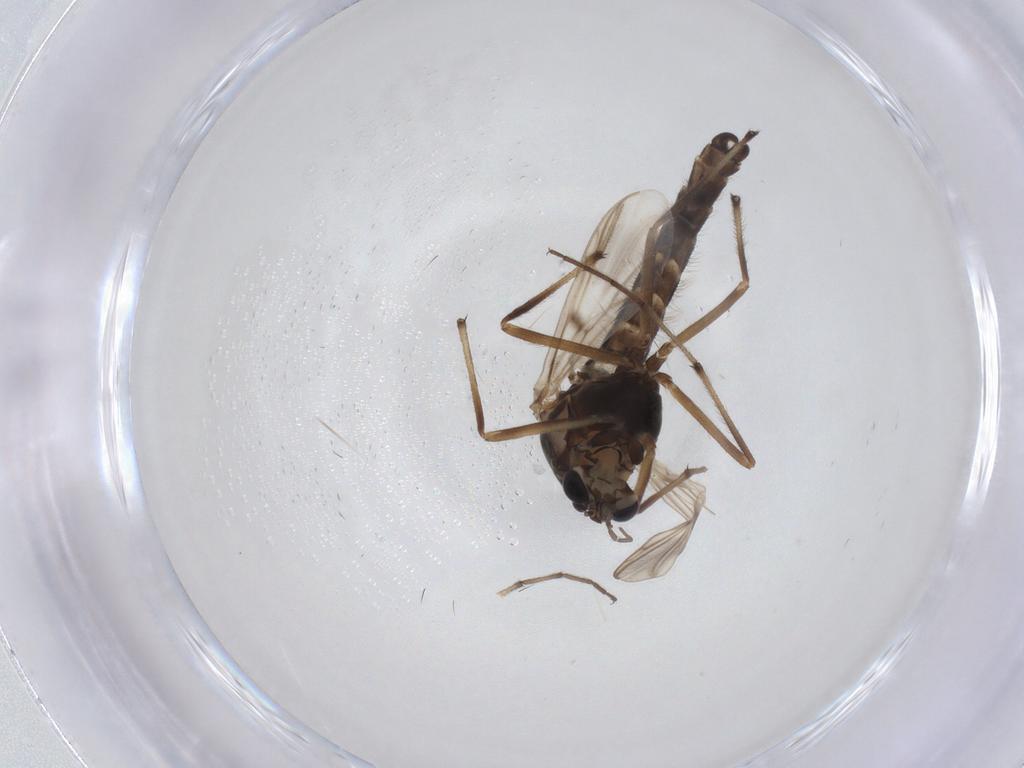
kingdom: Animalia
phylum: Arthropoda
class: Insecta
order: Diptera
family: Chironomidae
